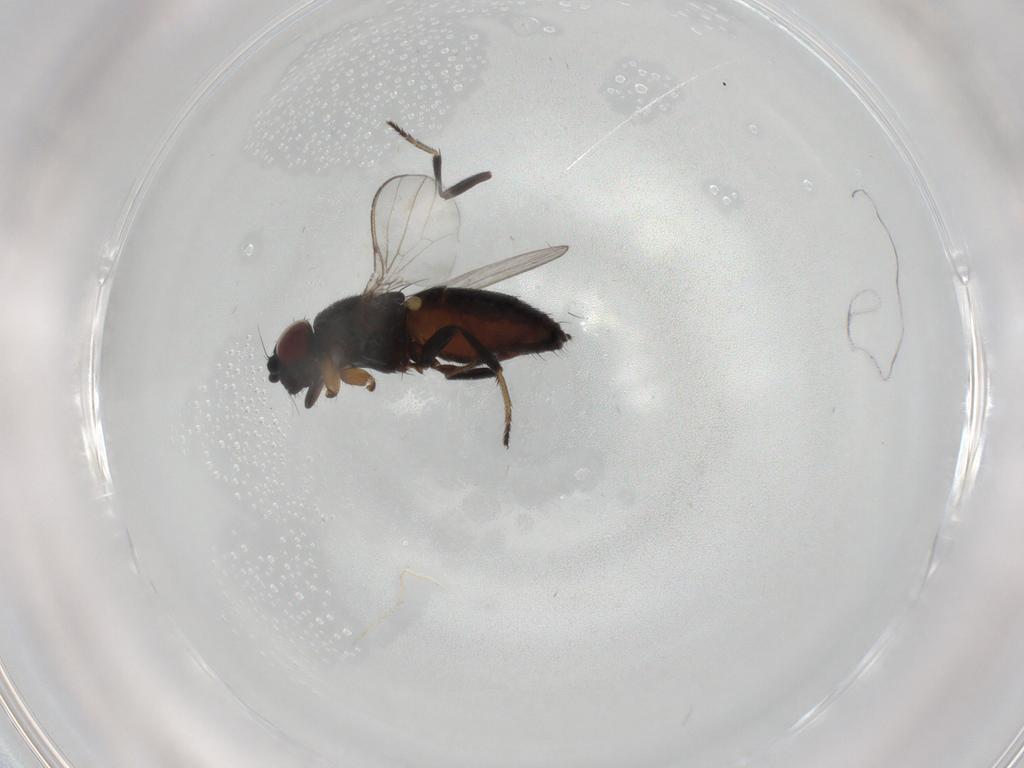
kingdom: Animalia
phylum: Arthropoda
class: Insecta
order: Diptera
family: Milichiidae
